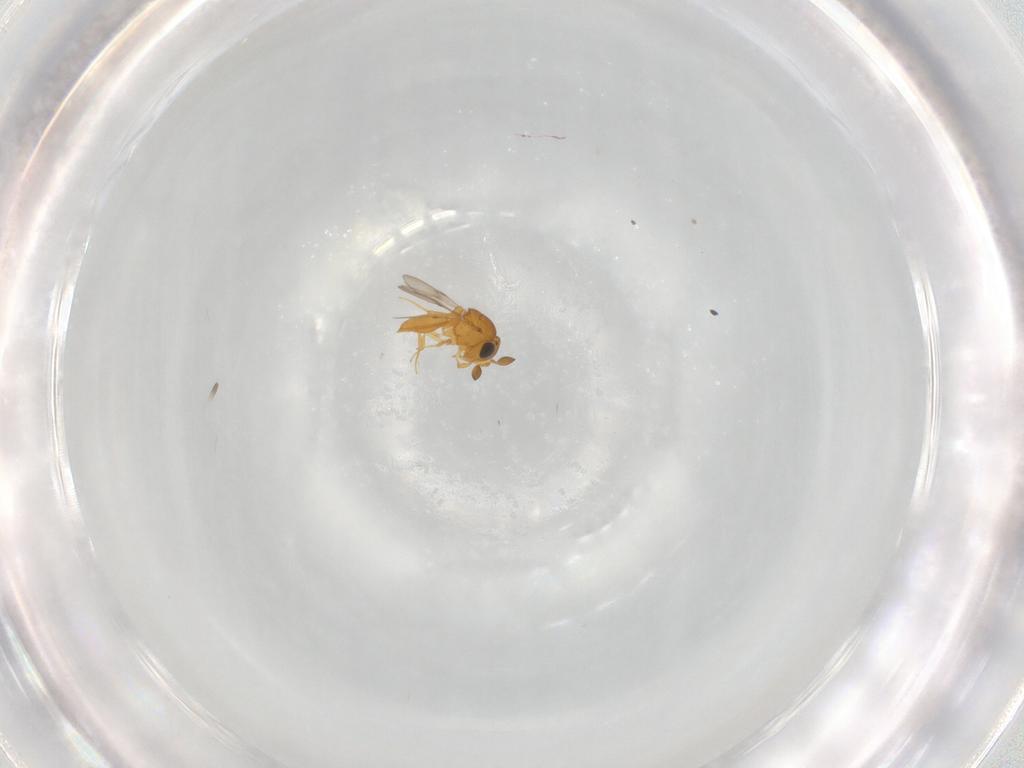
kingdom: Animalia
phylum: Arthropoda
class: Insecta
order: Hymenoptera
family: Scelionidae
